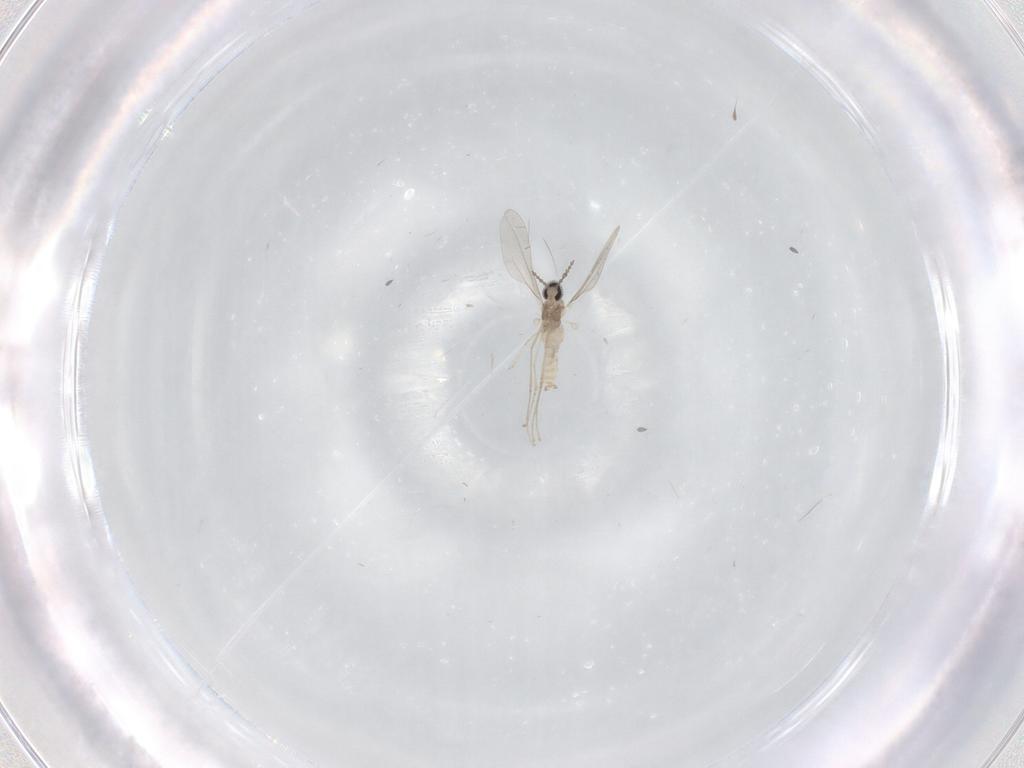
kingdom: Animalia
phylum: Arthropoda
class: Insecta
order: Diptera
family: Cecidomyiidae
